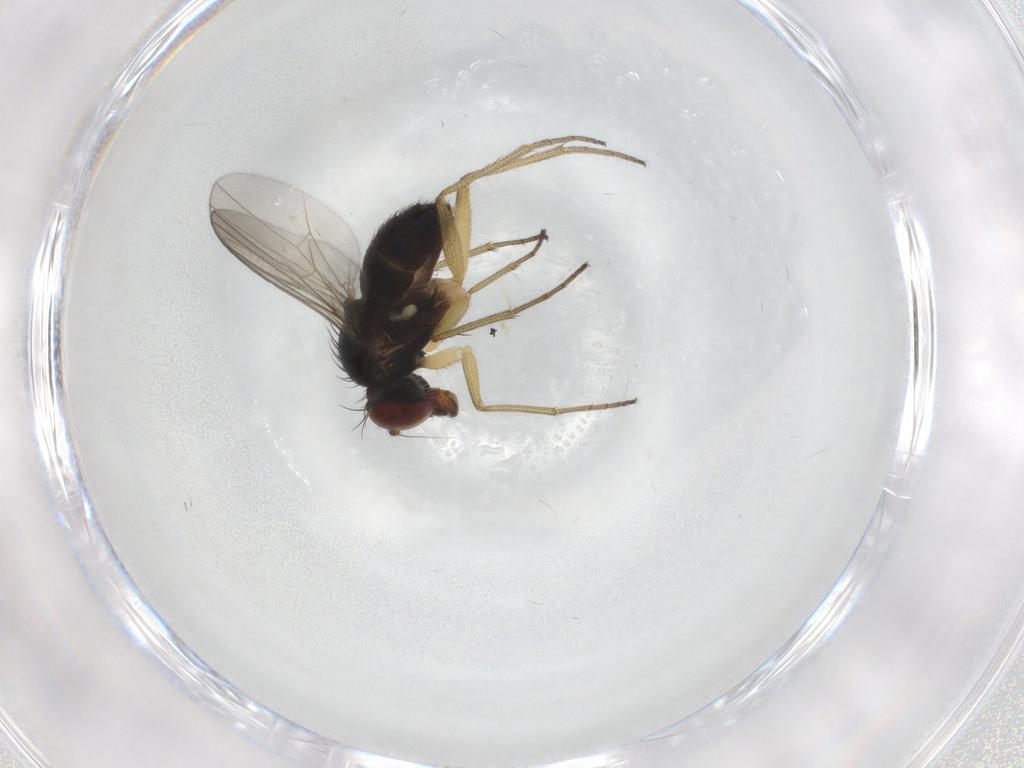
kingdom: Animalia
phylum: Arthropoda
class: Insecta
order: Diptera
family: Dolichopodidae
